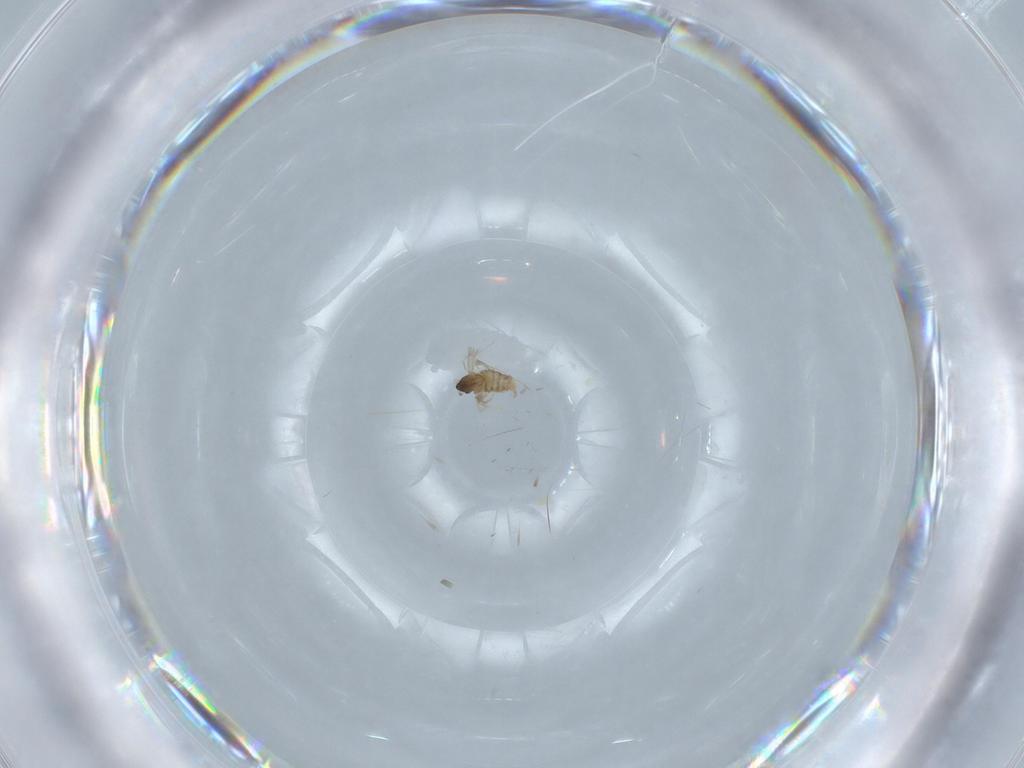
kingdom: Animalia
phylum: Arthropoda
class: Insecta
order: Diptera
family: Cecidomyiidae
